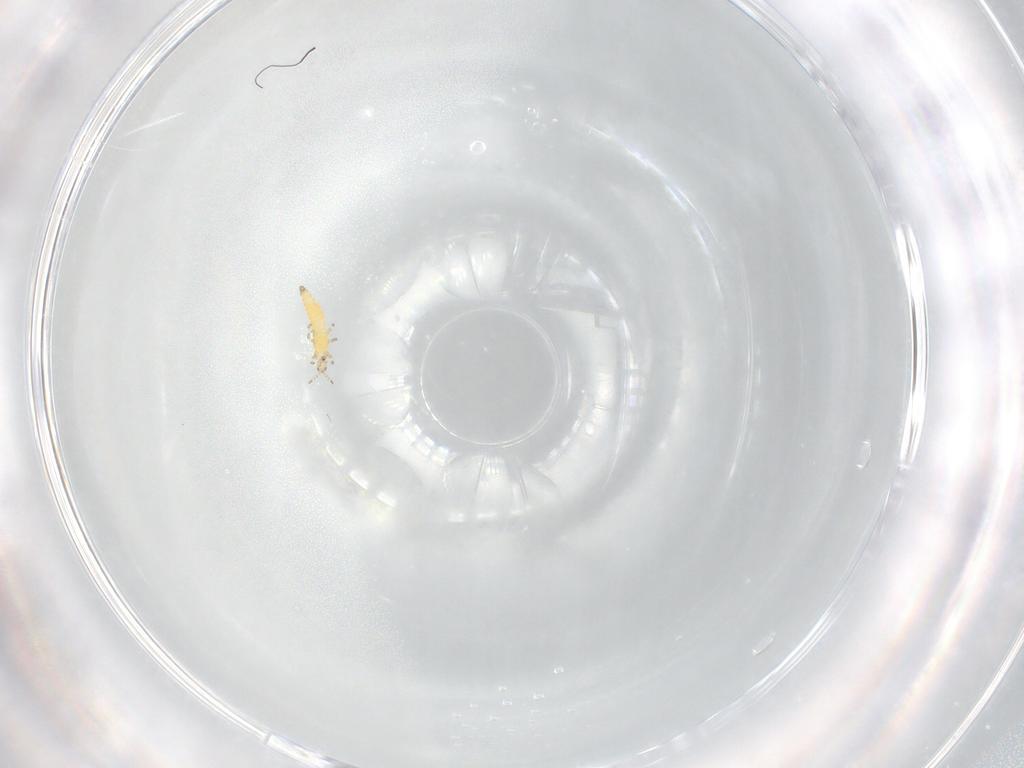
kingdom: Animalia
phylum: Arthropoda
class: Insecta
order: Thysanoptera
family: Thripidae
